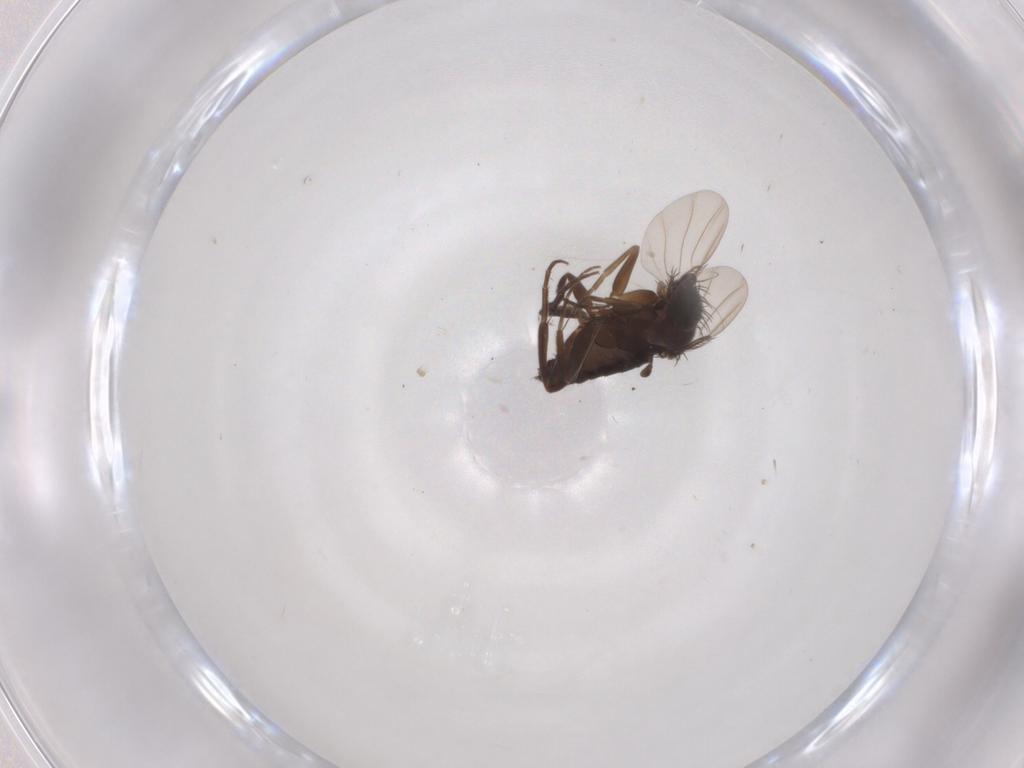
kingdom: Animalia
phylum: Arthropoda
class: Insecta
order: Diptera
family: Phoridae
